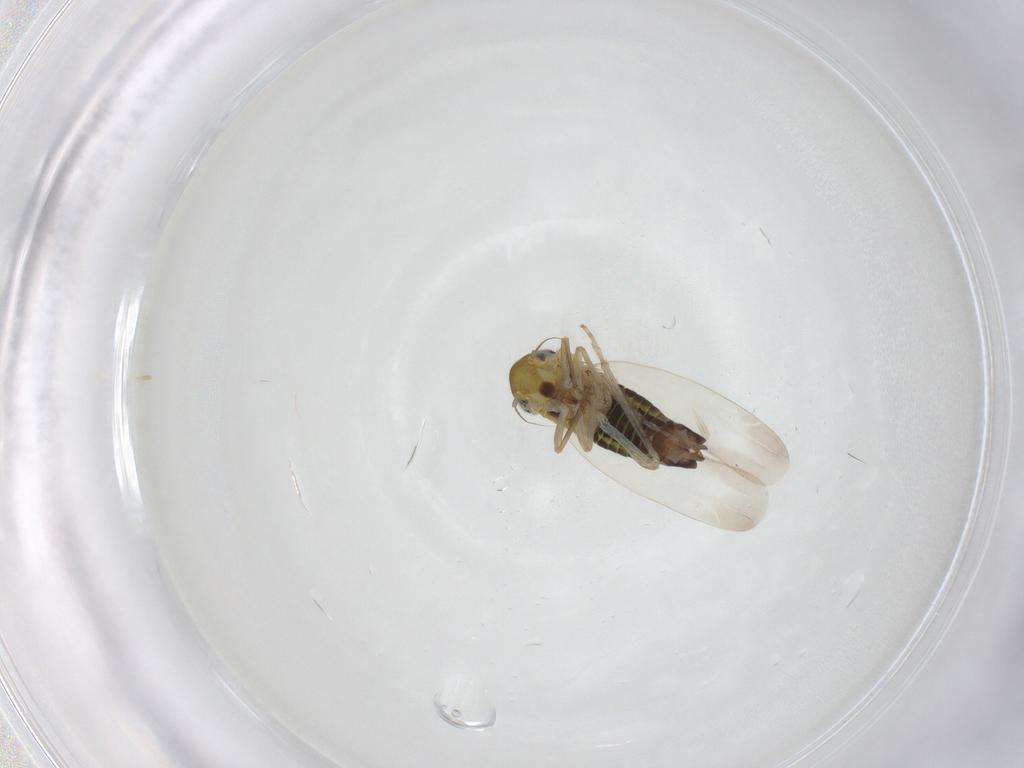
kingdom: Animalia
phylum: Arthropoda
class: Insecta
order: Hemiptera
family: Cicadellidae
